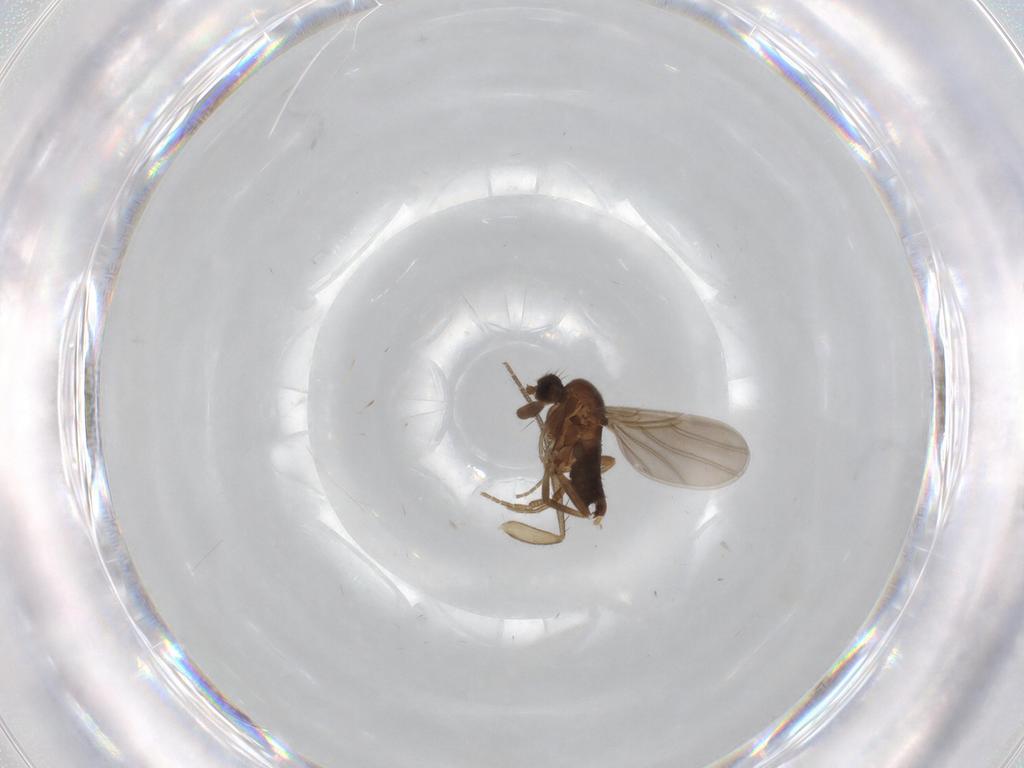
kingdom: Animalia
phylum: Arthropoda
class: Insecta
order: Diptera
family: Phoridae
